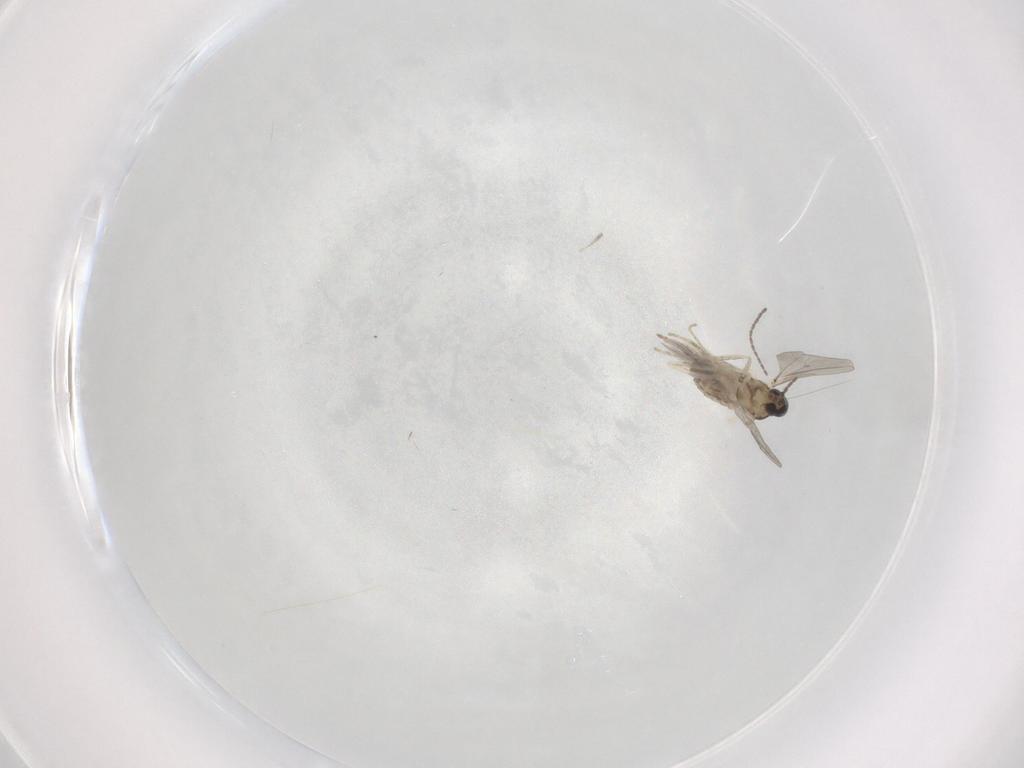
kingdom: Animalia
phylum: Arthropoda
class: Insecta
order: Diptera
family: Cecidomyiidae
